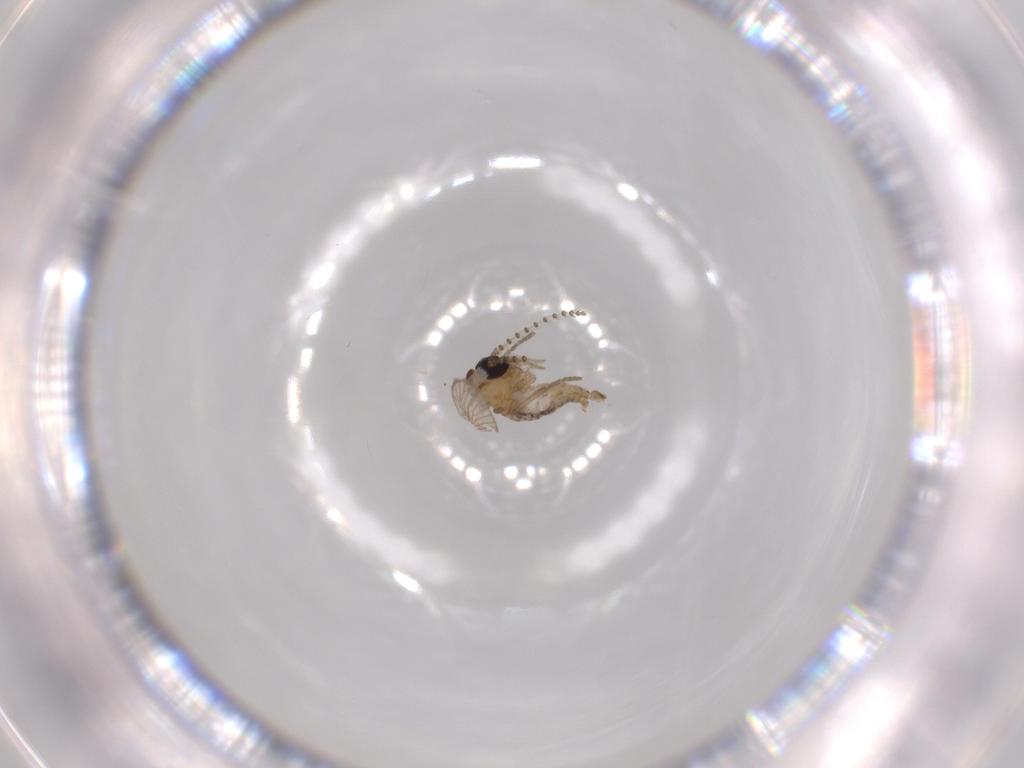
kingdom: Animalia
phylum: Arthropoda
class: Insecta
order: Diptera
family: Psychodidae
